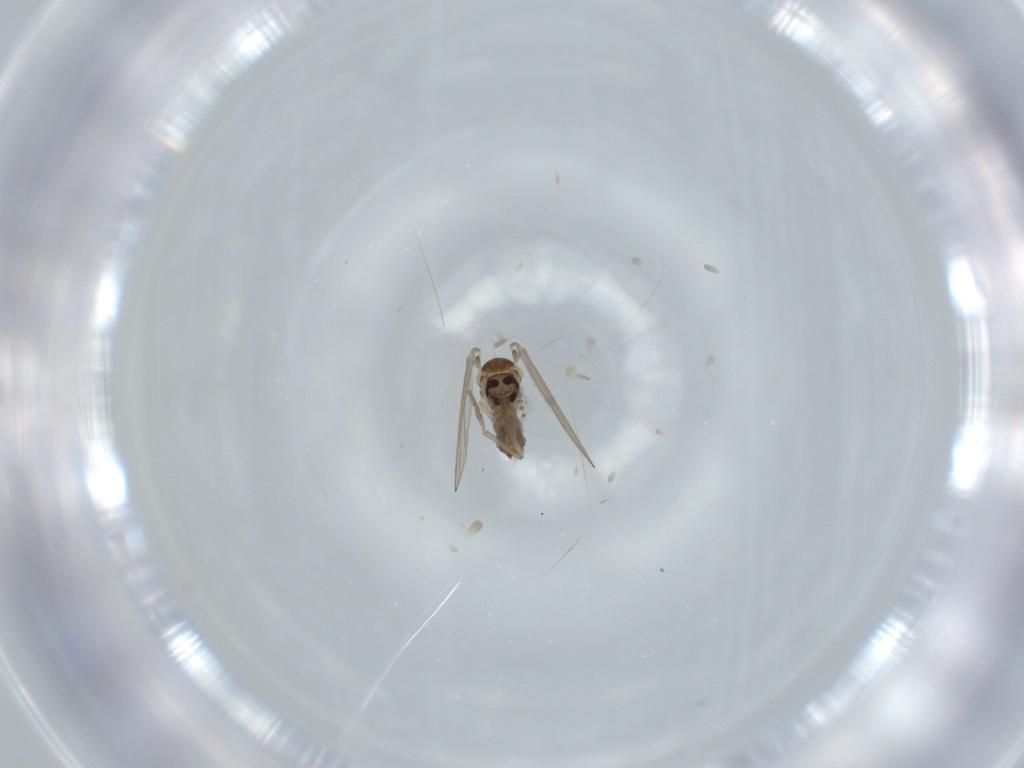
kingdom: Animalia
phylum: Arthropoda
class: Insecta
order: Diptera
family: Psychodidae
